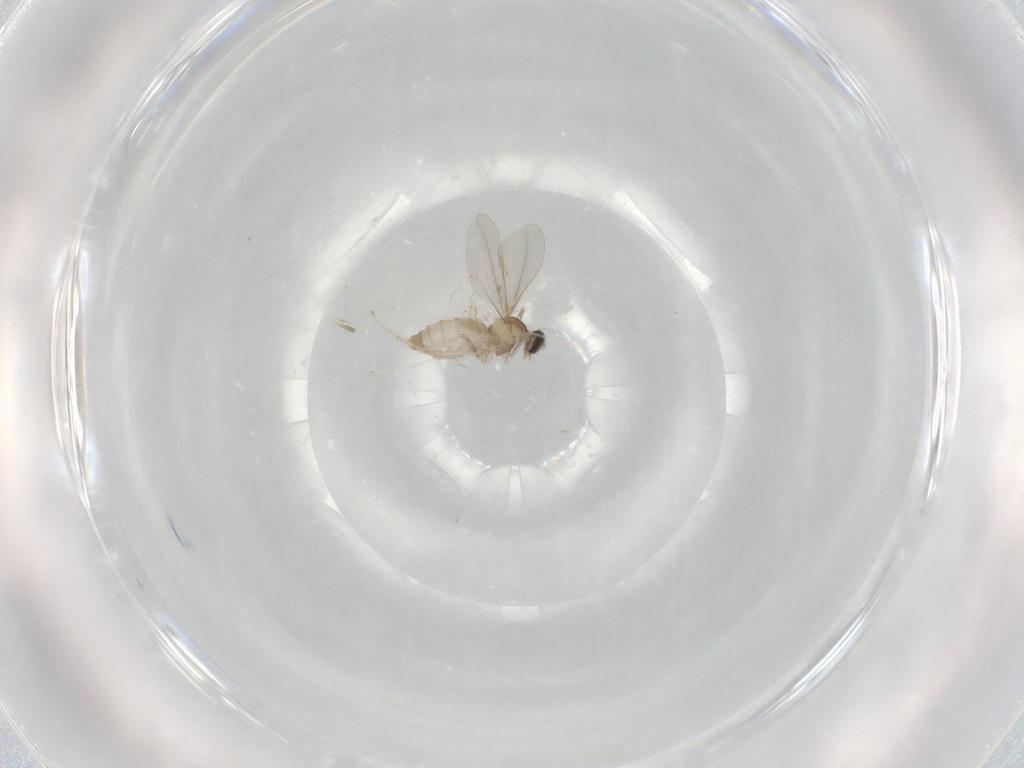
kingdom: Animalia
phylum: Arthropoda
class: Insecta
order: Diptera
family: Cecidomyiidae
